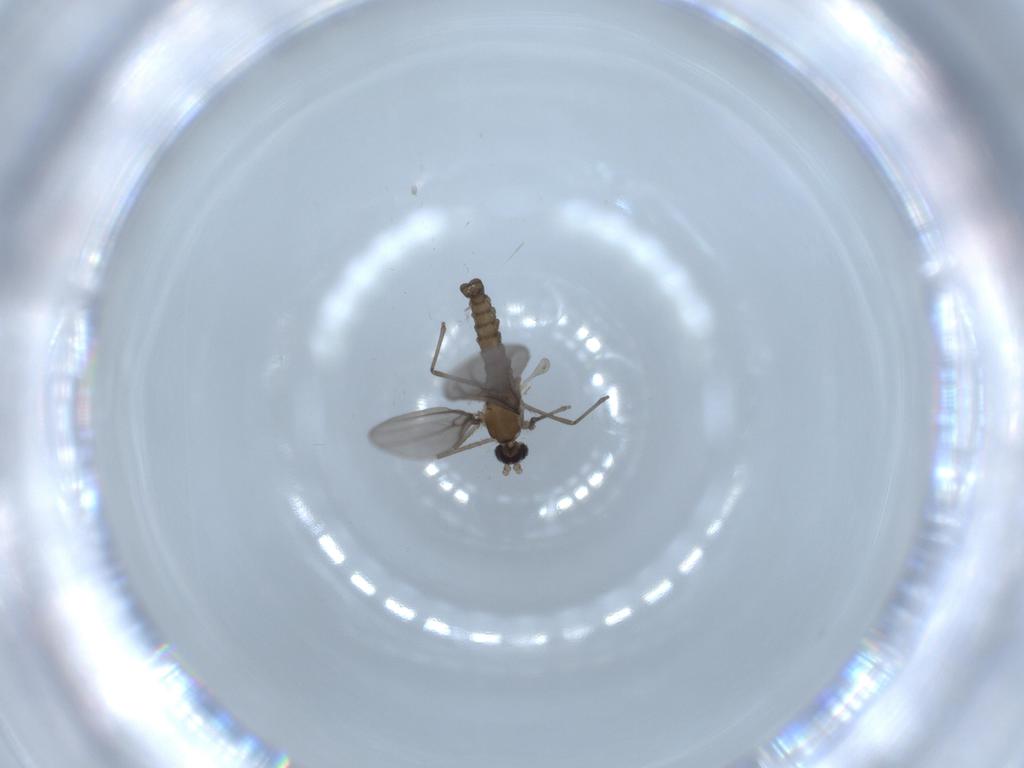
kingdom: Animalia
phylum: Arthropoda
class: Insecta
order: Diptera
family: Cecidomyiidae
